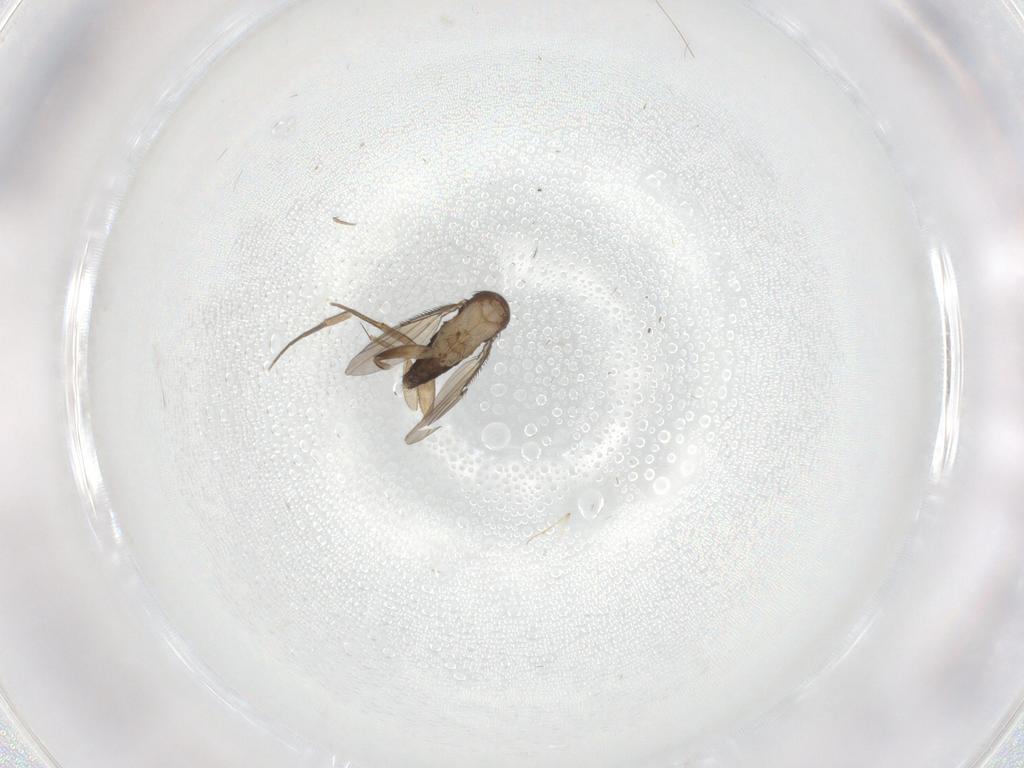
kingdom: Animalia
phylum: Arthropoda
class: Insecta
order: Diptera
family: Phoridae
